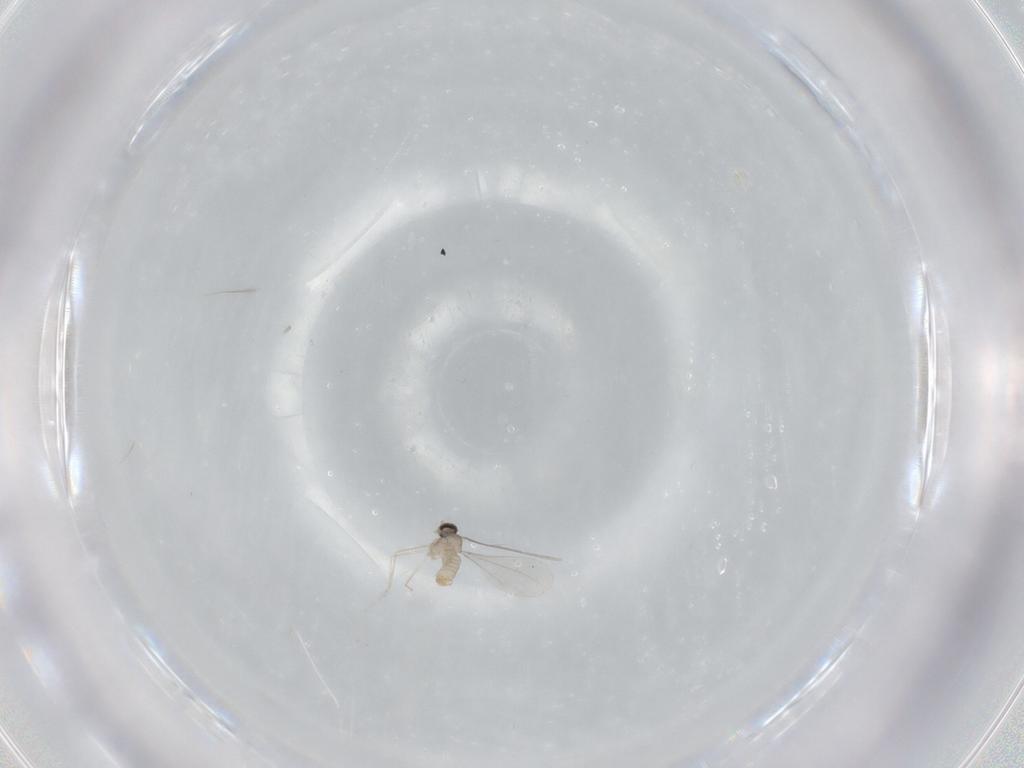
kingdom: Animalia
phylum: Arthropoda
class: Insecta
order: Diptera
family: Cecidomyiidae
